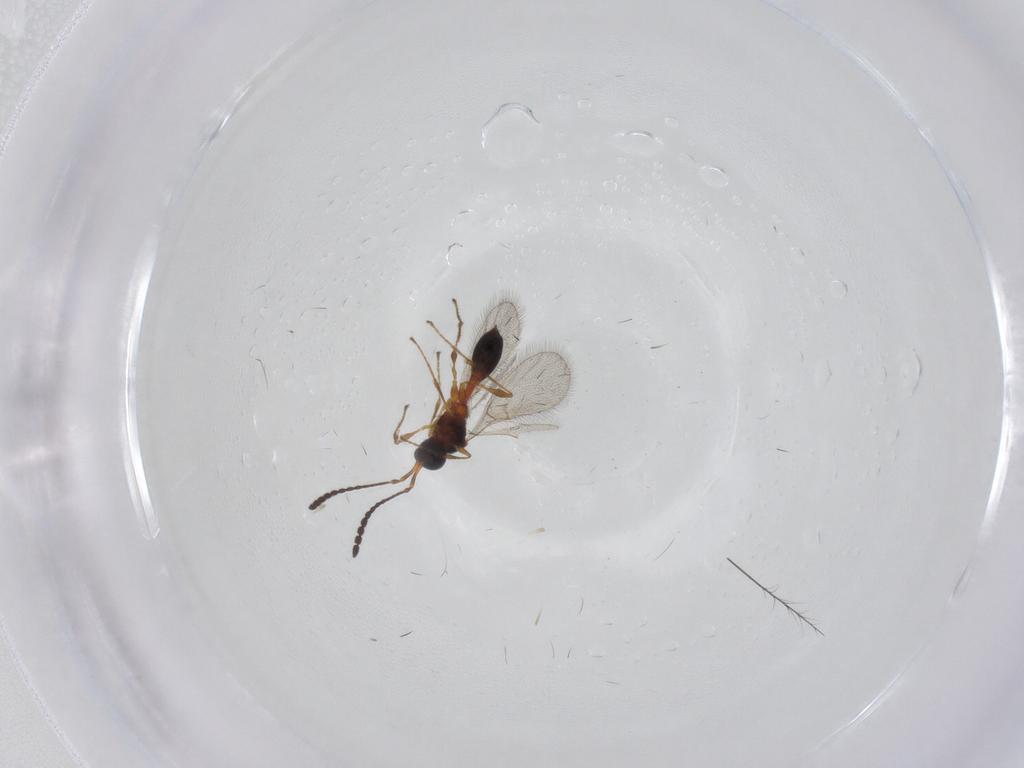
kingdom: Animalia
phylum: Arthropoda
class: Insecta
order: Hymenoptera
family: Diapriidae
